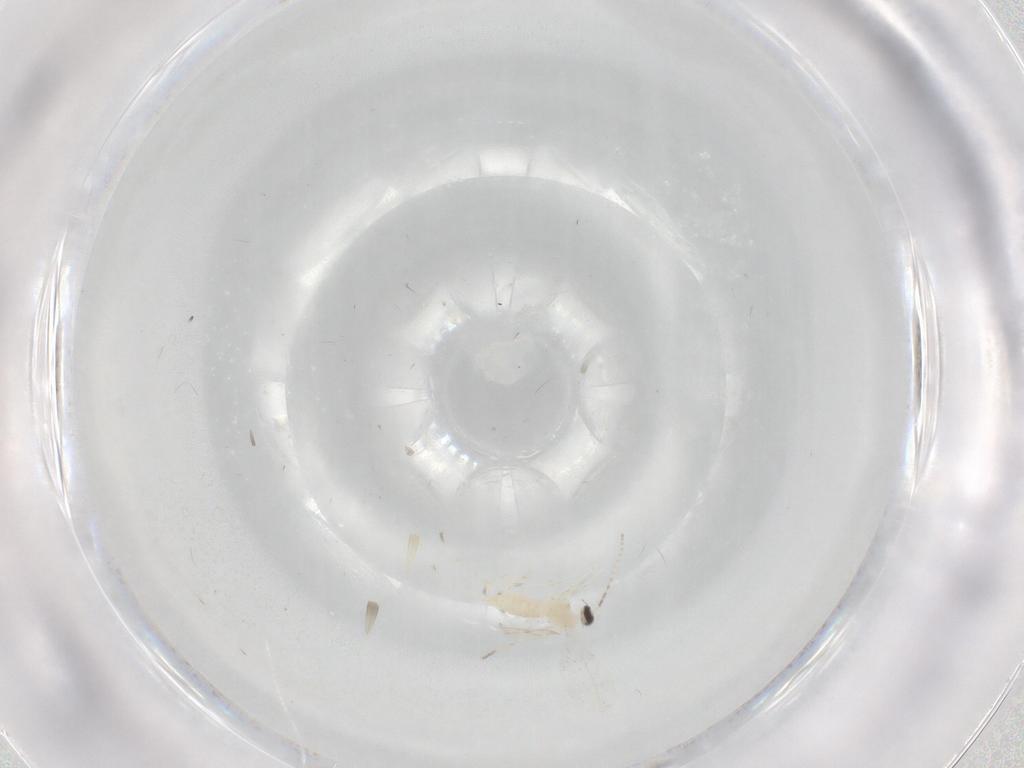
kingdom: Animalia
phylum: Arthropoda
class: Insecta
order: Diptera
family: Cecidomyiidae
